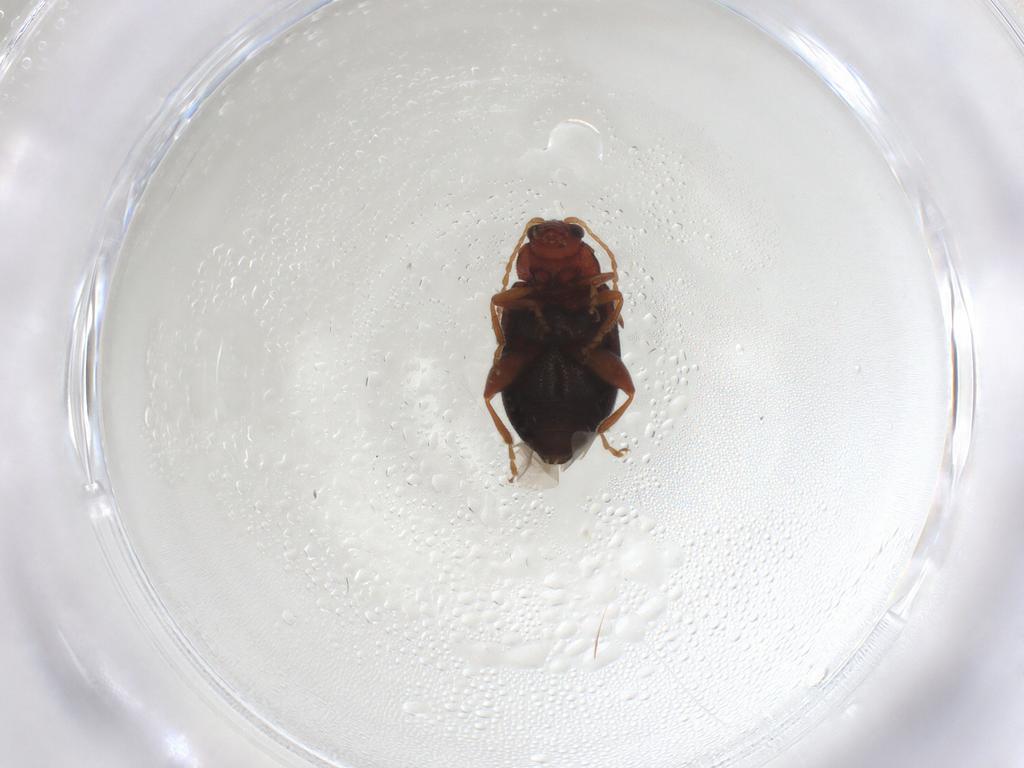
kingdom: Animalia
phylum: Arthropoda
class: Insecta
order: Coleoptera
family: Chrysomelidae
